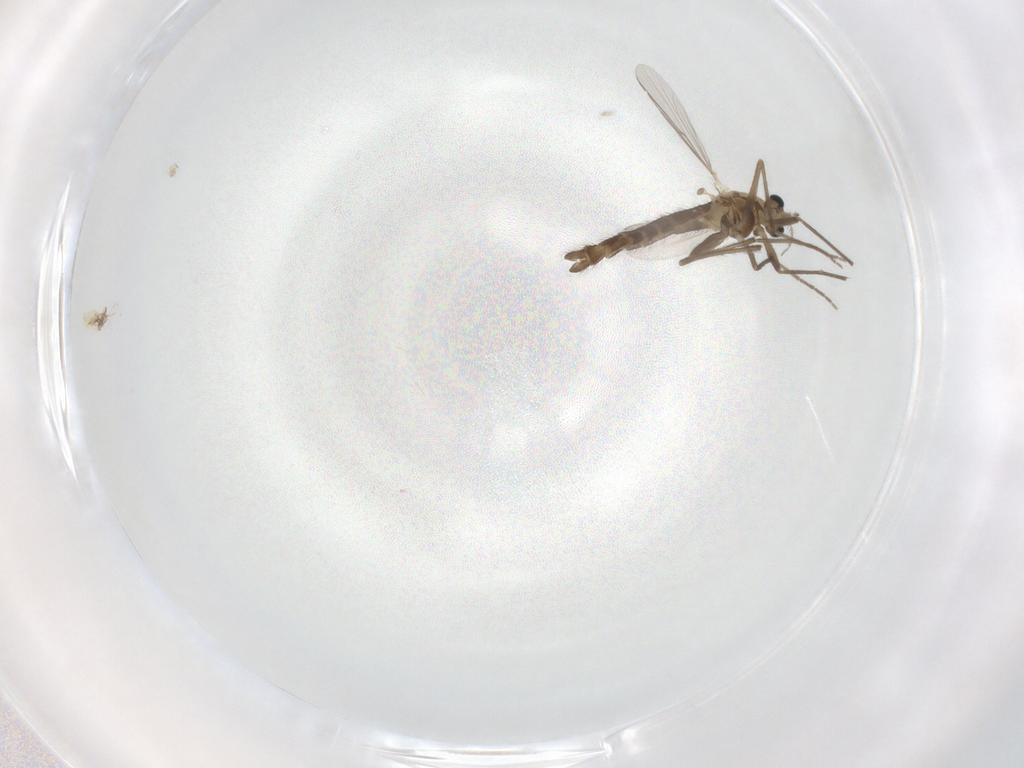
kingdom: Animalia
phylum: Arthropoda
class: Insecta
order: Diptera
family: Chironomidae
